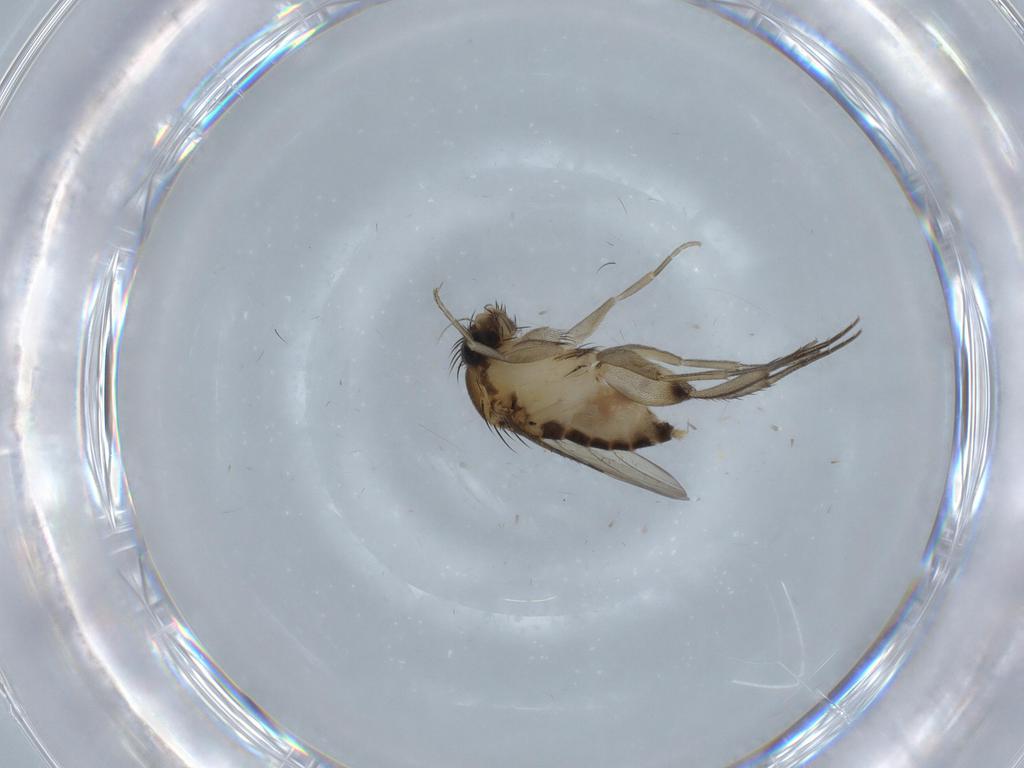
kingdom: Animalia
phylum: Arthropoda
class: Insecta
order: Diptera
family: Phoridae
